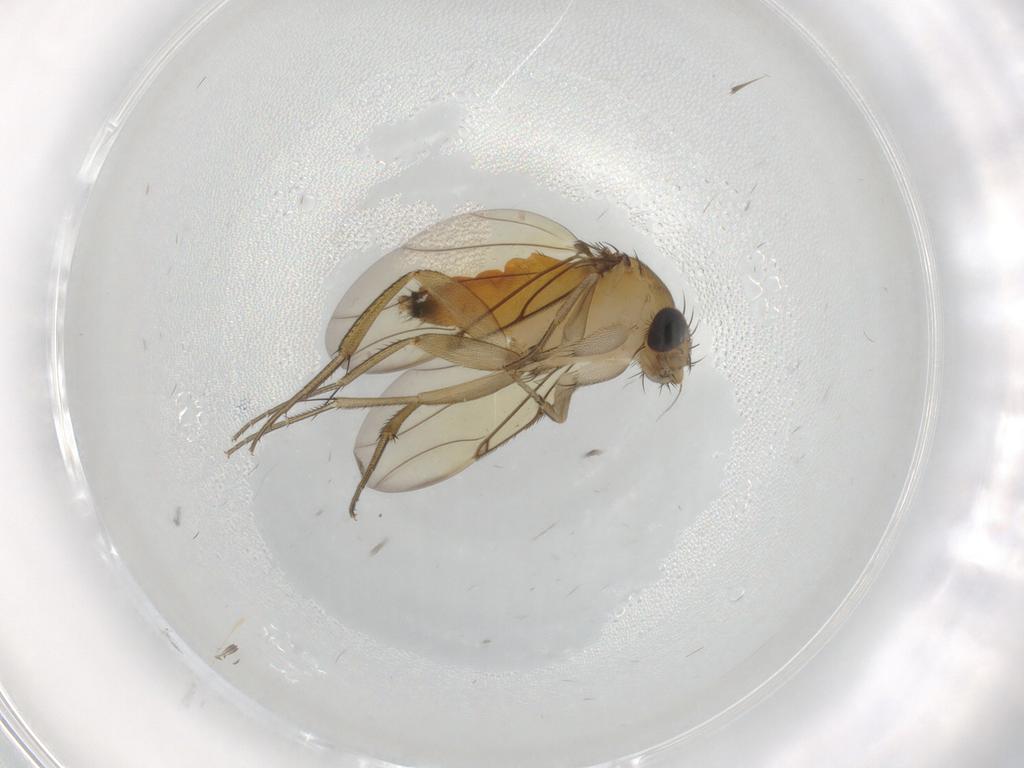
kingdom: Animalia
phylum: Arthropoda
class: Insecta
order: Diptera
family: Phoridae
